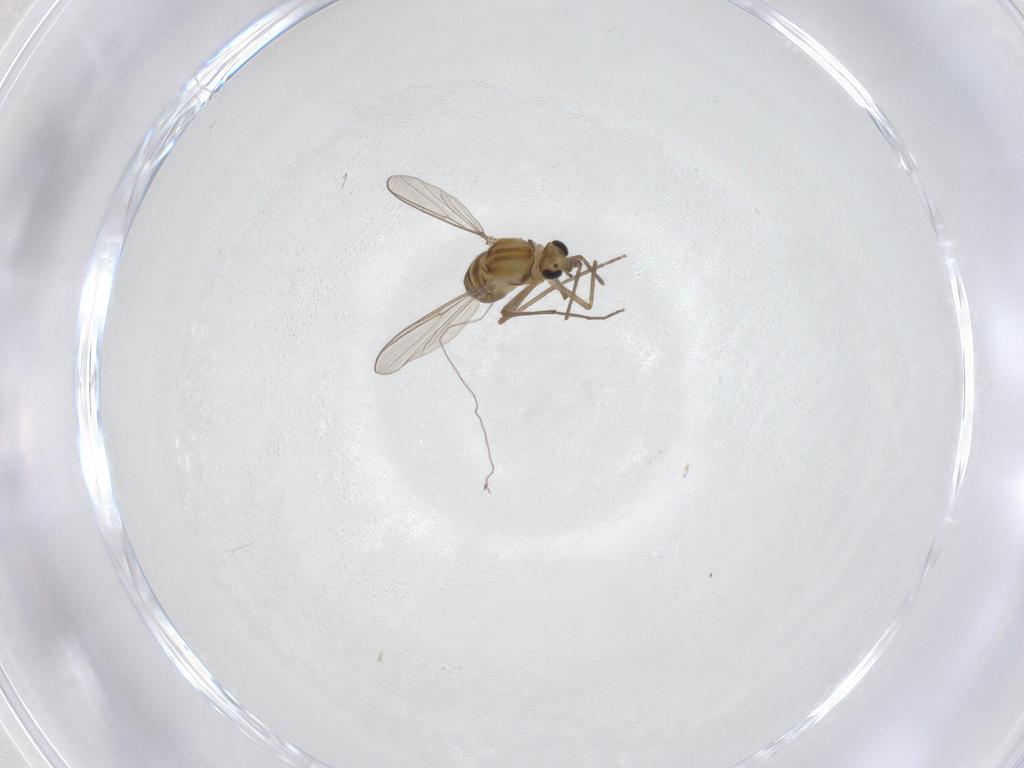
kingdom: Animalia
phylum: Arthropoda
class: Insecta
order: Diptera
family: Chironomidae
